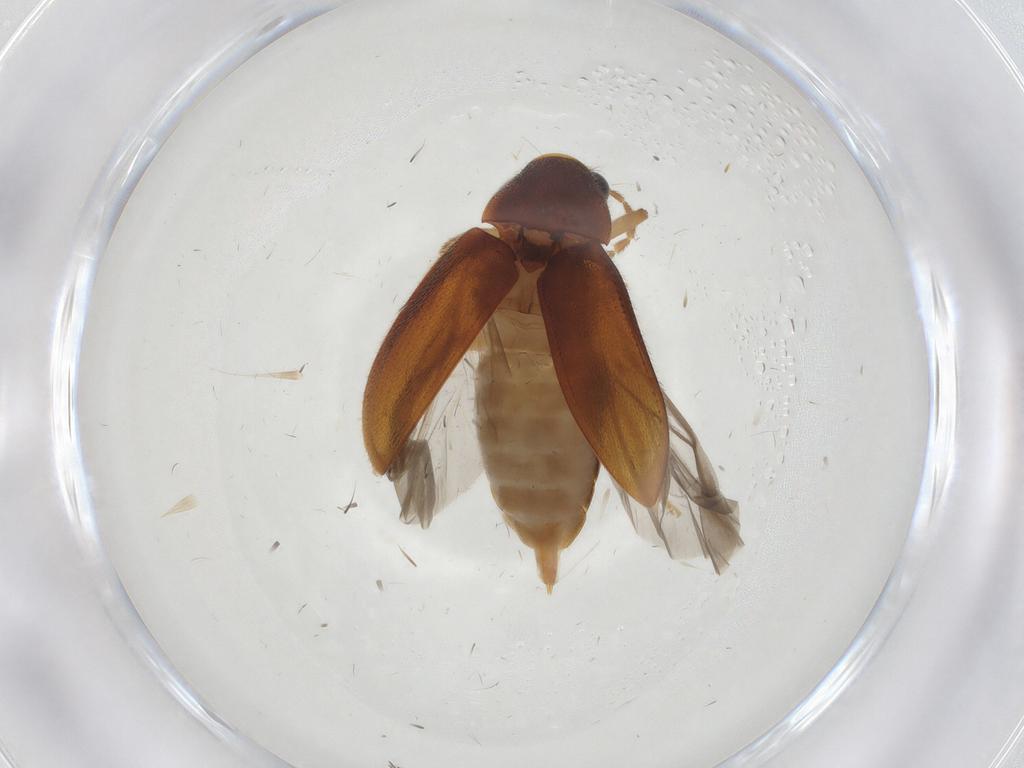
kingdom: Animalia
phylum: Arthropoda
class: Insecta
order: Coleoptera
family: Ptilodactylidae
